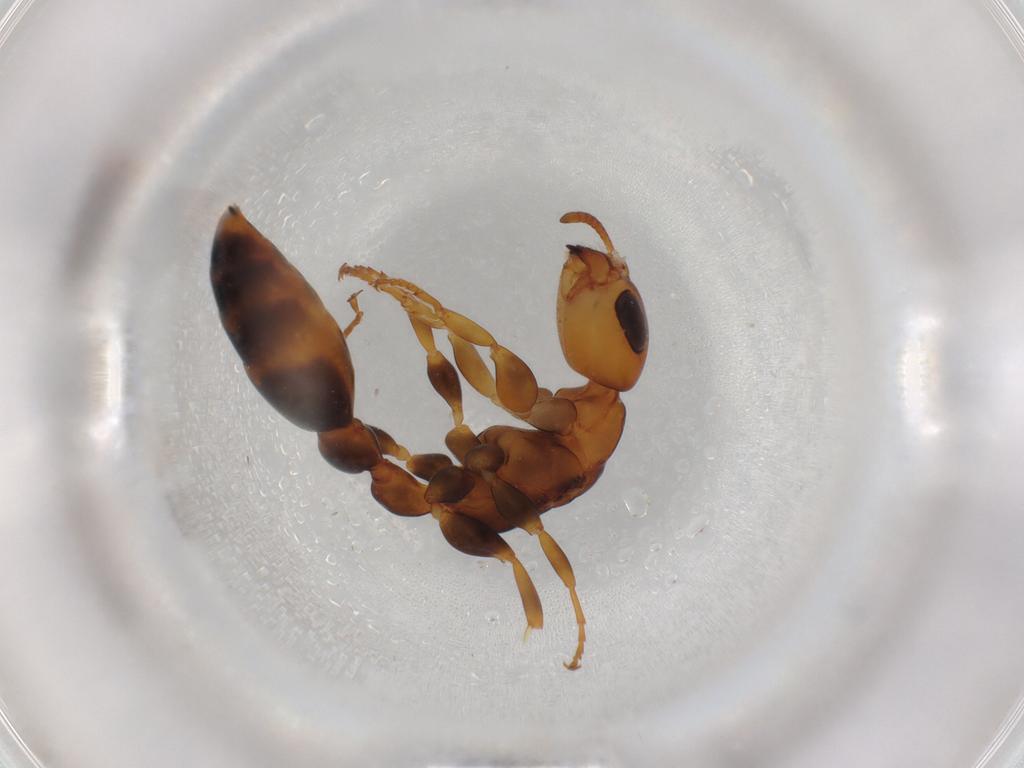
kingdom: Animalia
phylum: Arthropoda
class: Insecta
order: Hymenoptera
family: Formicidae
